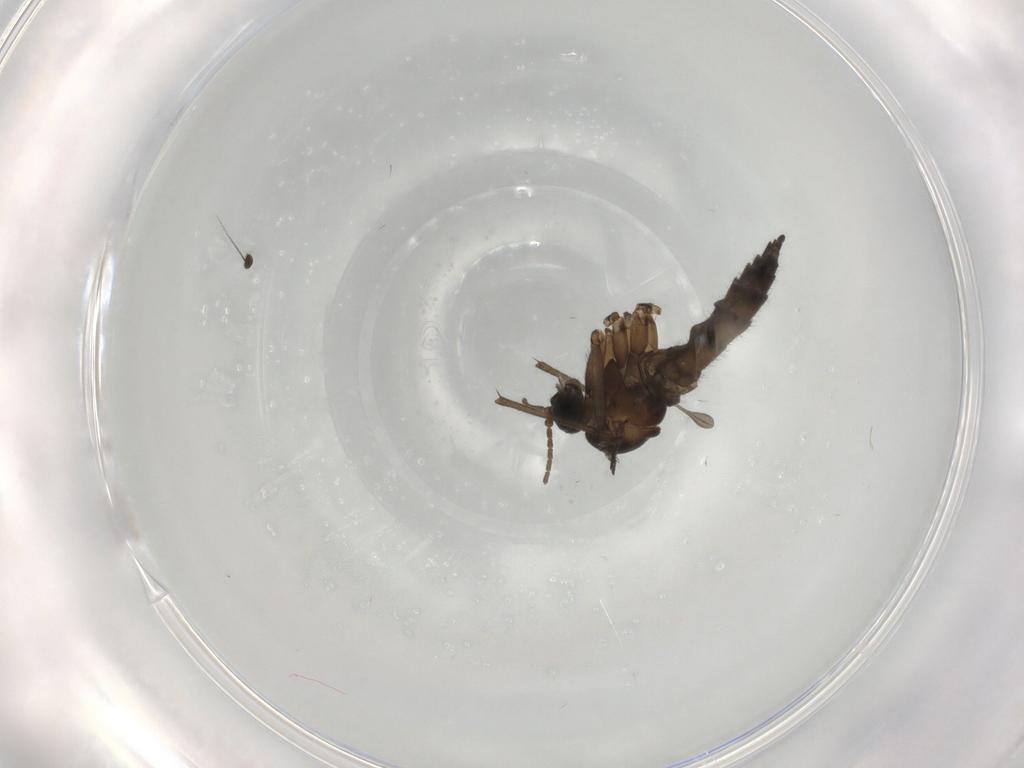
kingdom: Animalia
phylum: Arthropoda
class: Insecta
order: Diptera
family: Sciaridae
